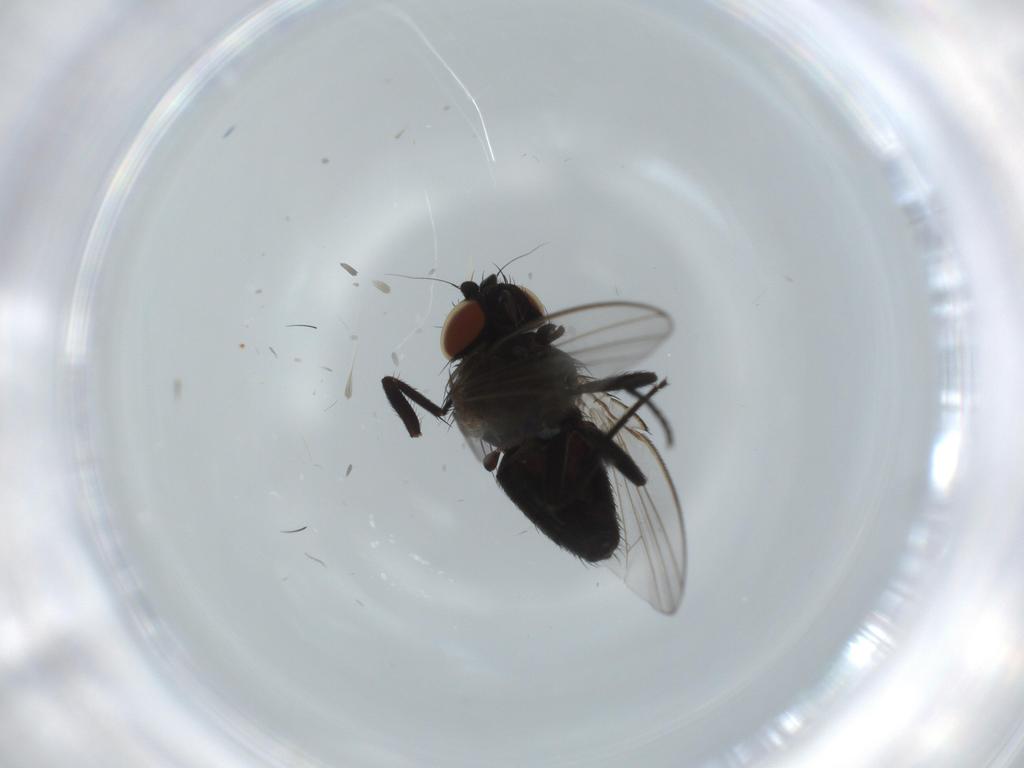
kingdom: Animalia
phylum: Arthropoda
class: Insecta
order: Diptera
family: Milichiidae
